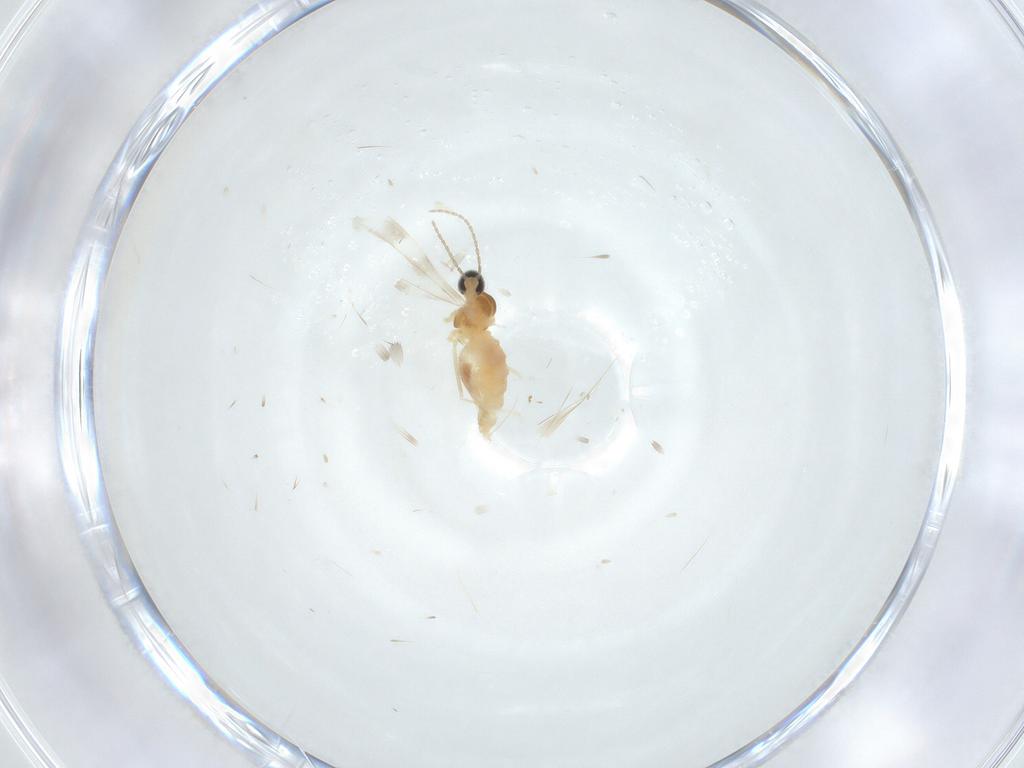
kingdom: Animalia
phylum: Arthropoda
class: Insecta
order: Diptera
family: Cecidomyiidae
